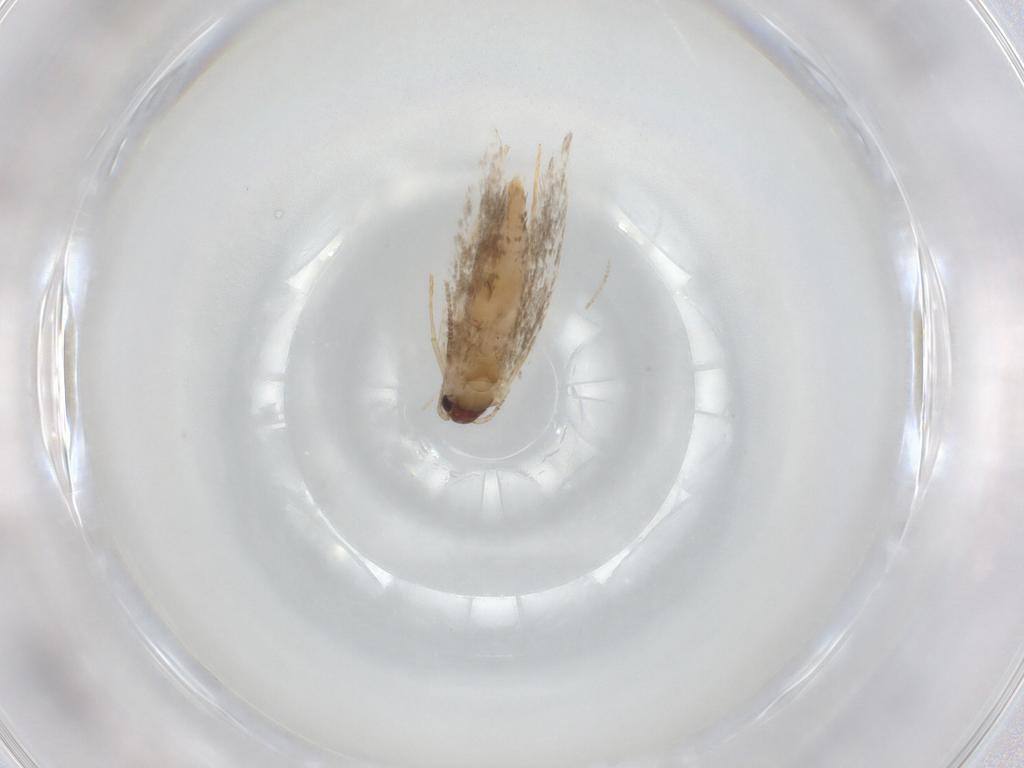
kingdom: Animalia
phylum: Arthropoda
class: Insecta
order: Lepidoptera
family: Tineidae
